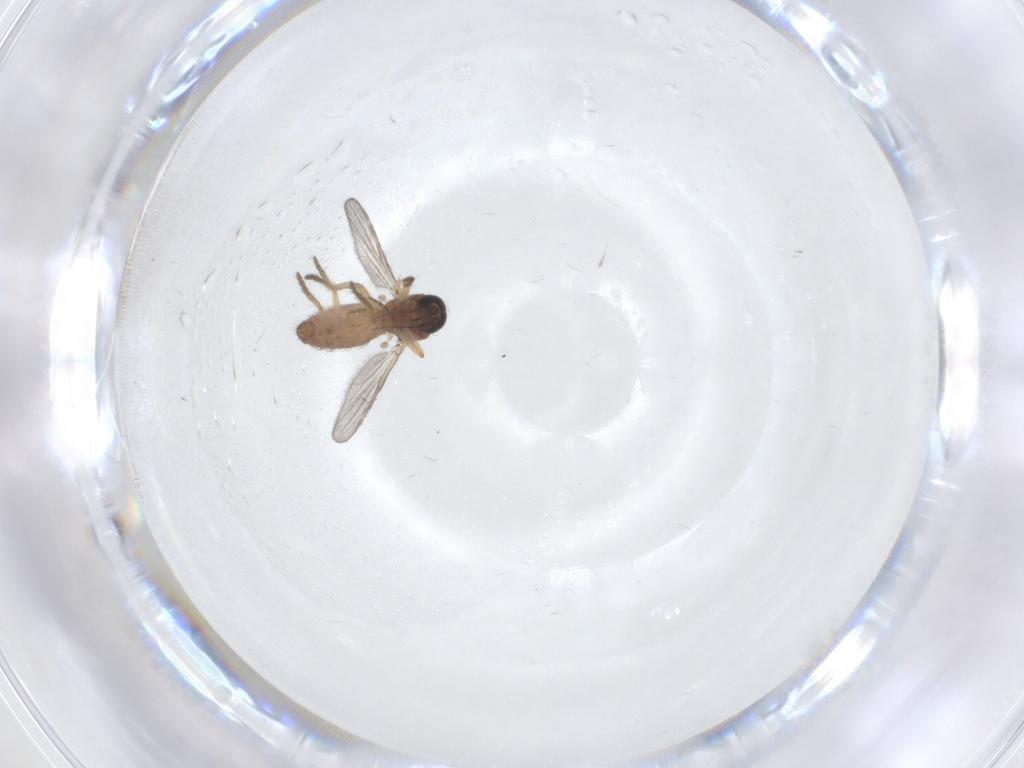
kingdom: Animalia
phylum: Arthropoda
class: Insecta
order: Diptera
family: Ceratopogonidae
